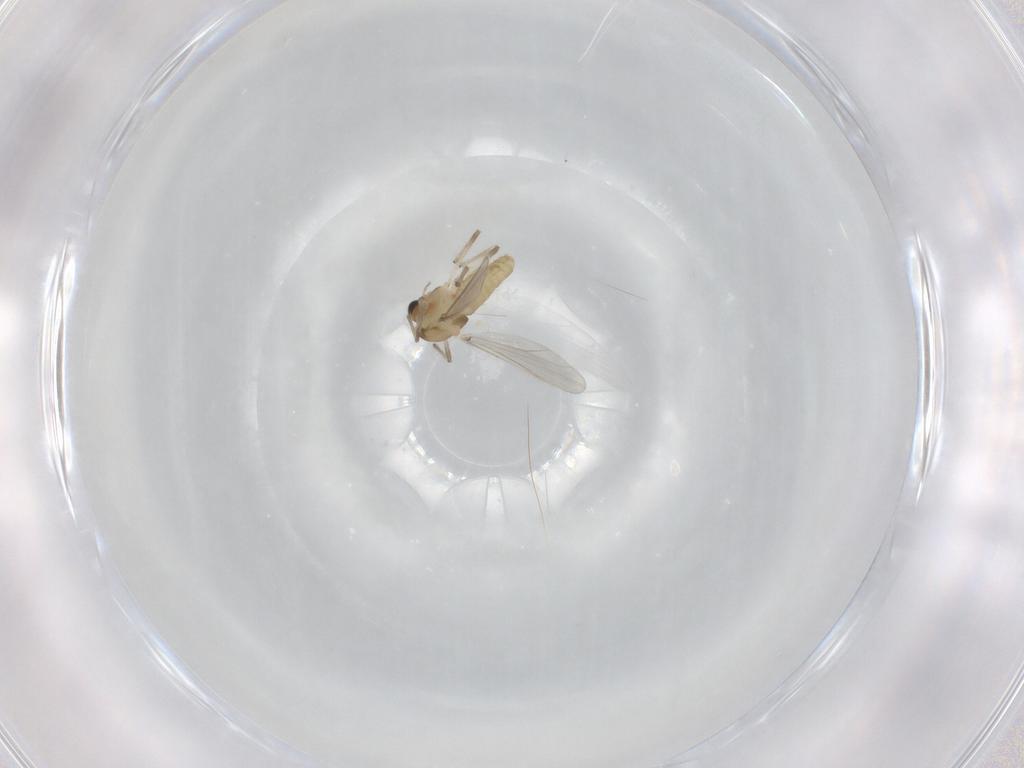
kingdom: Animalia
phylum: Arthropoda
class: Insecta
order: Diptera
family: Chironomidae
